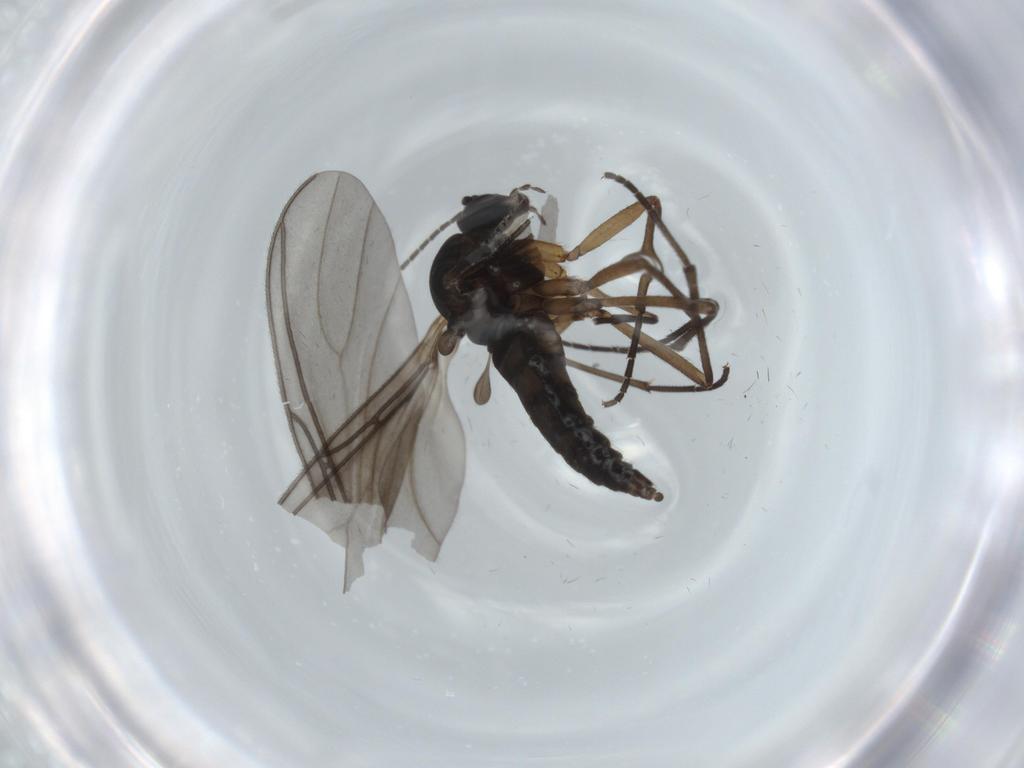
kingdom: Animalia
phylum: Arthropoda
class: Insecta
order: Diptera
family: Sciaridae
